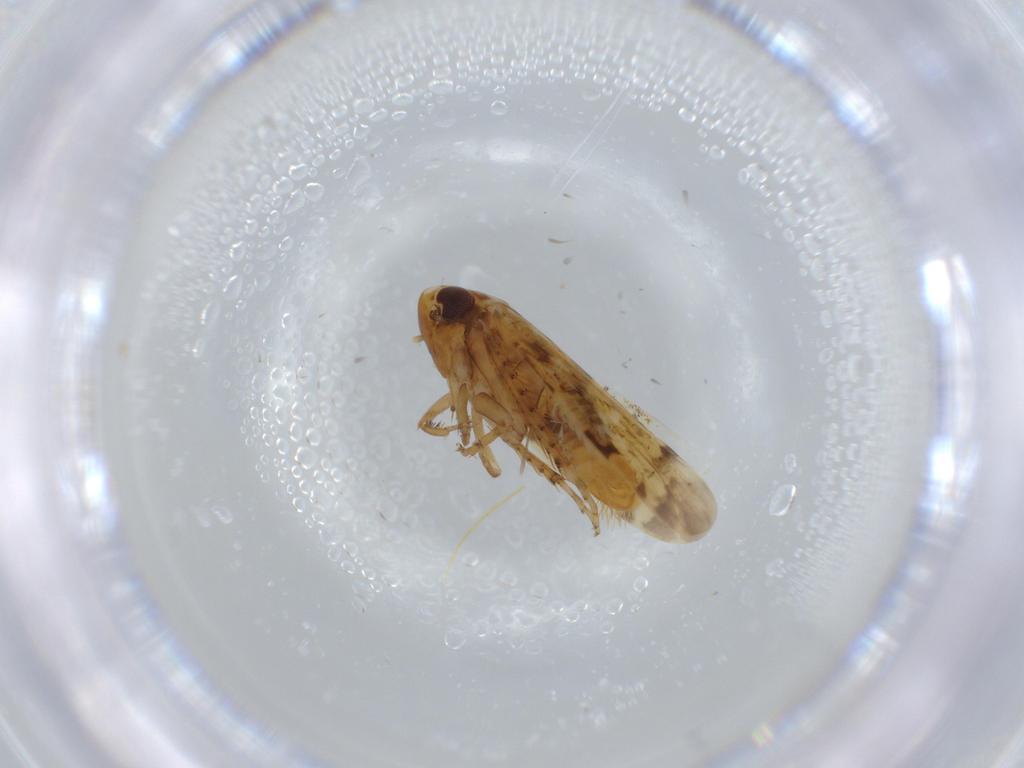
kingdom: Animalia
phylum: Arthropoda
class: Insecta
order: Hemiptera
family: Cicadellidae
